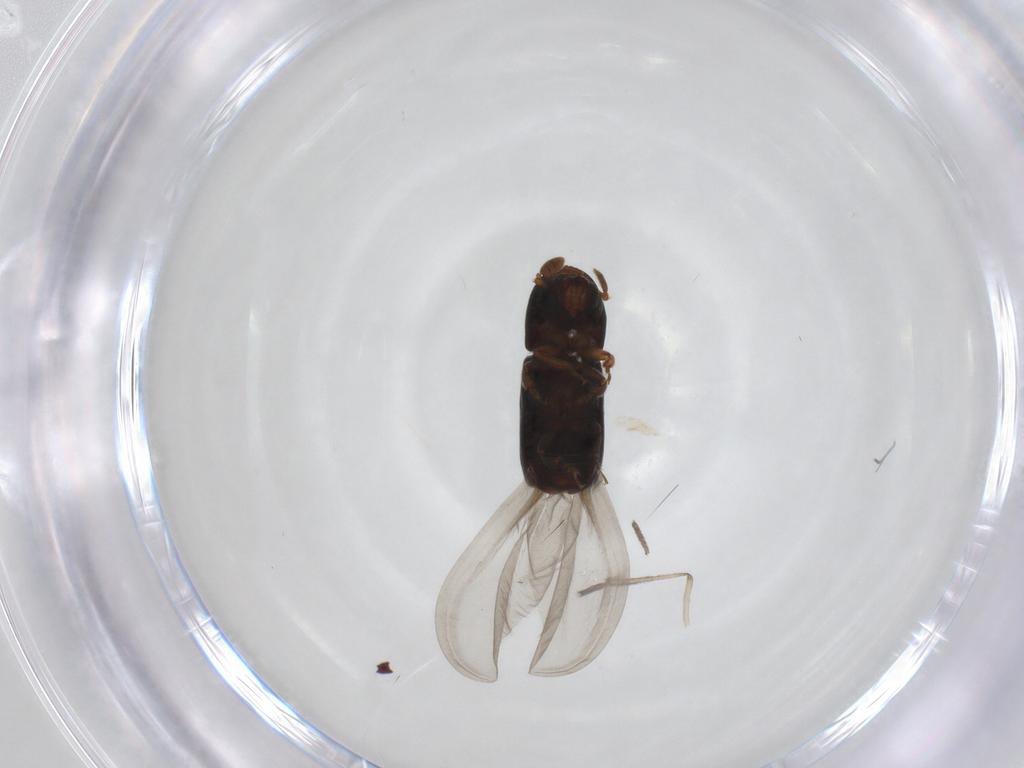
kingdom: Animalia
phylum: Arthropoda
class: Insecta
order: Coleoptera
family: Curculionidae
